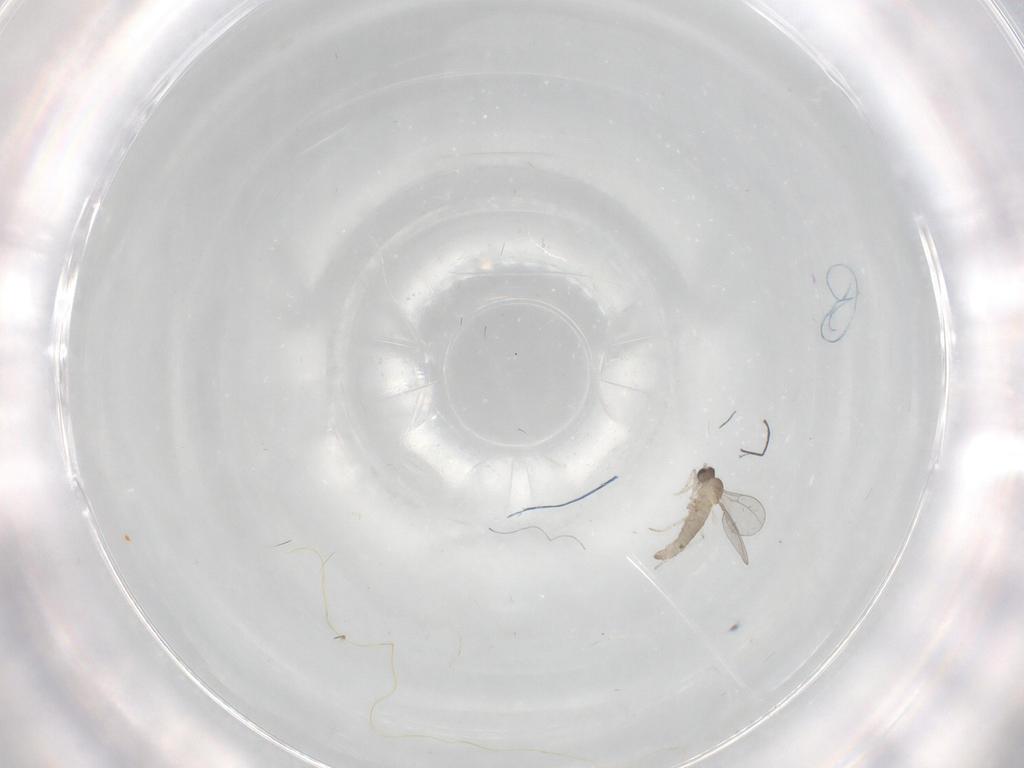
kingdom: Animalia
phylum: Arthropoda
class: Insecta
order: Diptera
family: Cecidomyiidae
